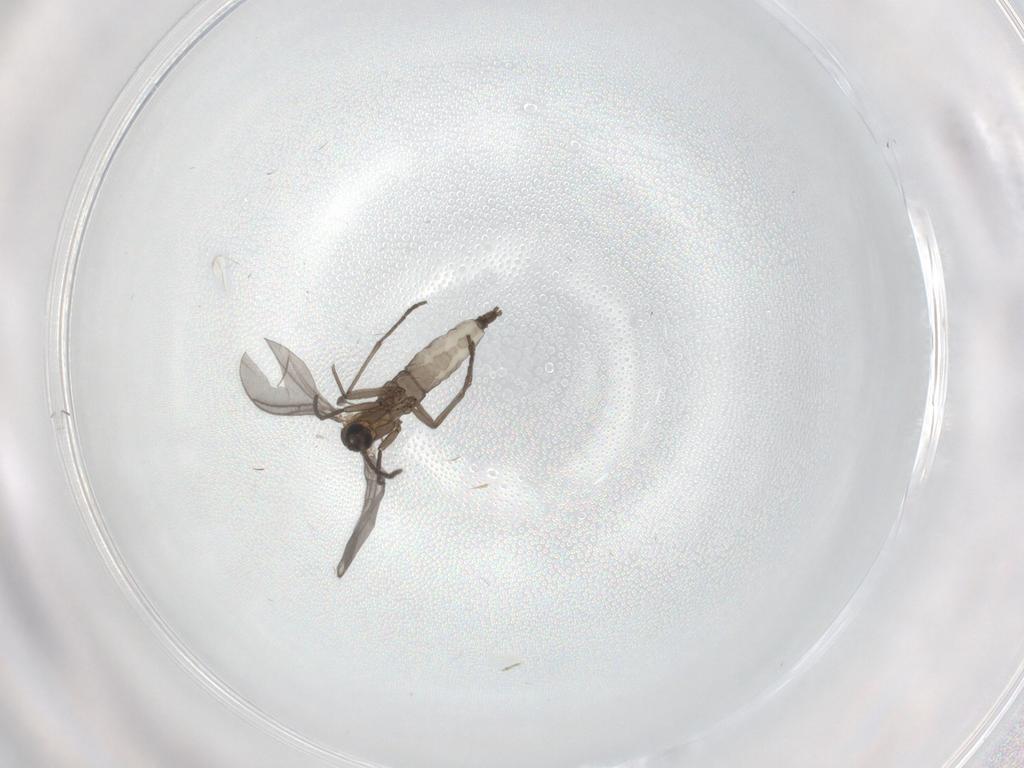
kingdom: Animalia
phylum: Arthropoda
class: Insecta
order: Diptera
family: Sciaridae
